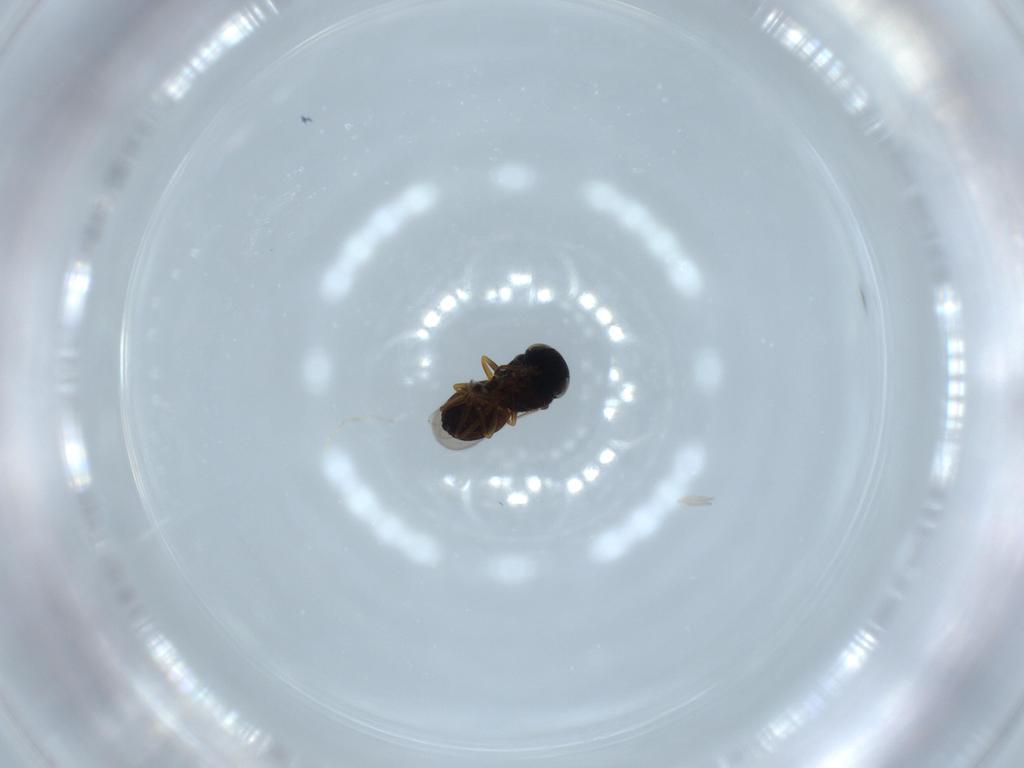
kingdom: Animalia
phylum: Arthropoda
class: Insecta
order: Hymenoptera
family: Scelionidae
